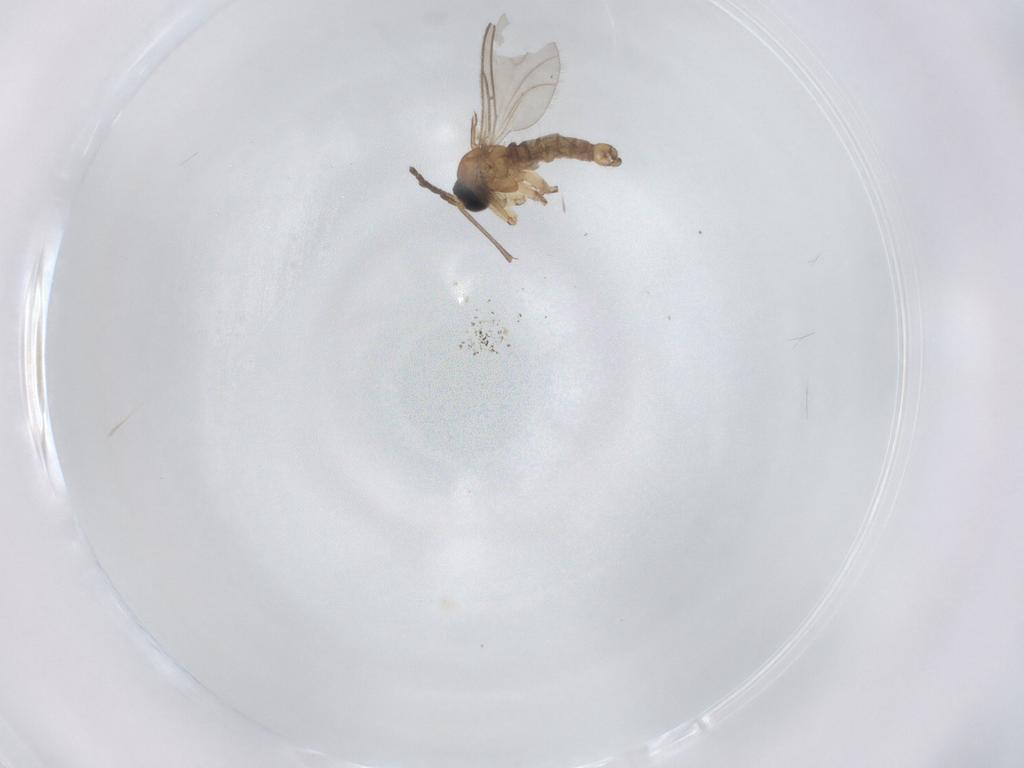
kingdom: Animalia
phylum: Arthropoda
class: Insecta
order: Diptera
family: Sciaridae
